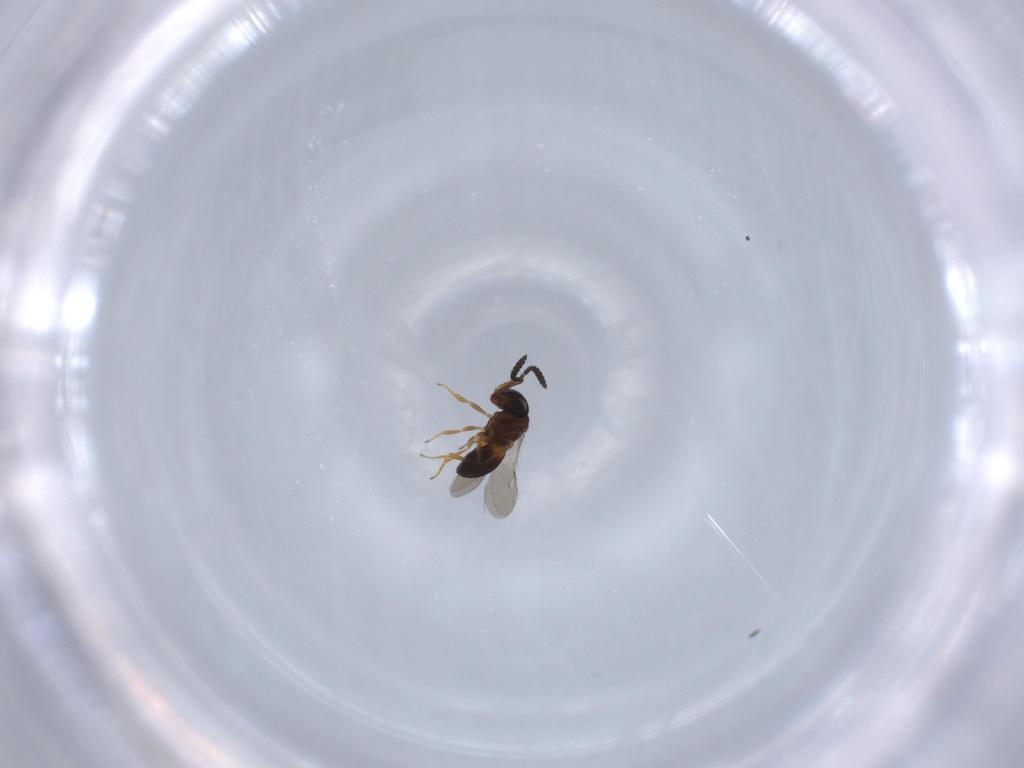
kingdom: Animalia
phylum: Arthropoda
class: Insecta
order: Hymenoptera
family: Scelionidae
